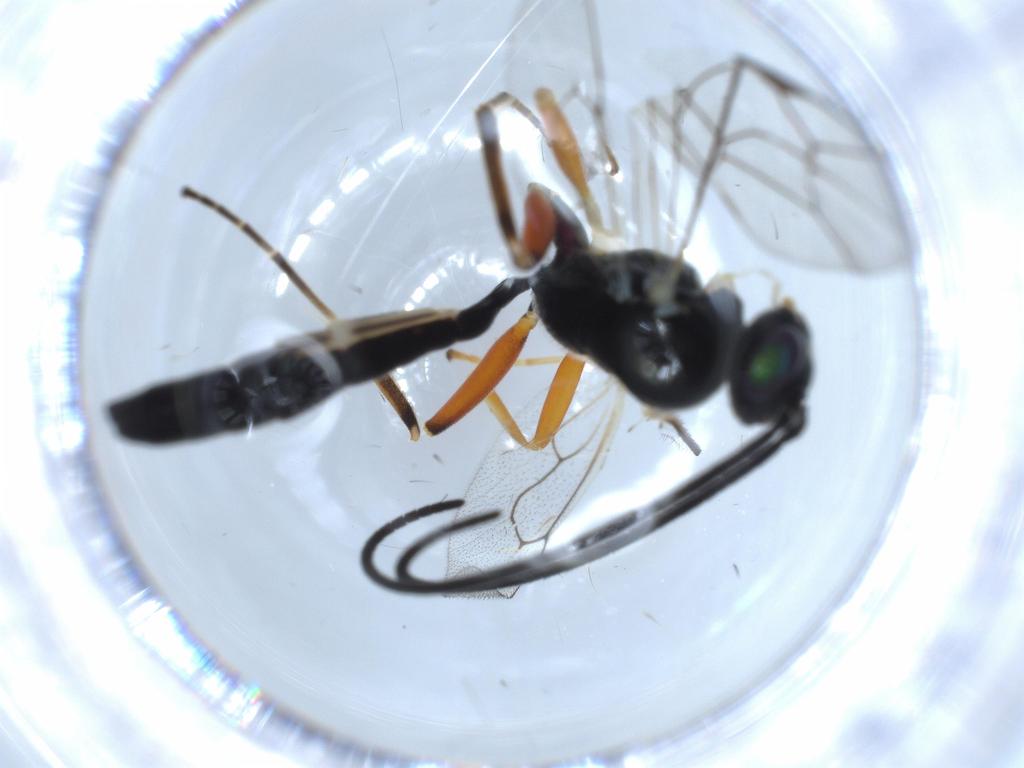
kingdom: Animalia
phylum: Arthropoda
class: Insecta
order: Hymenoptera
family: Ichneumonidae
